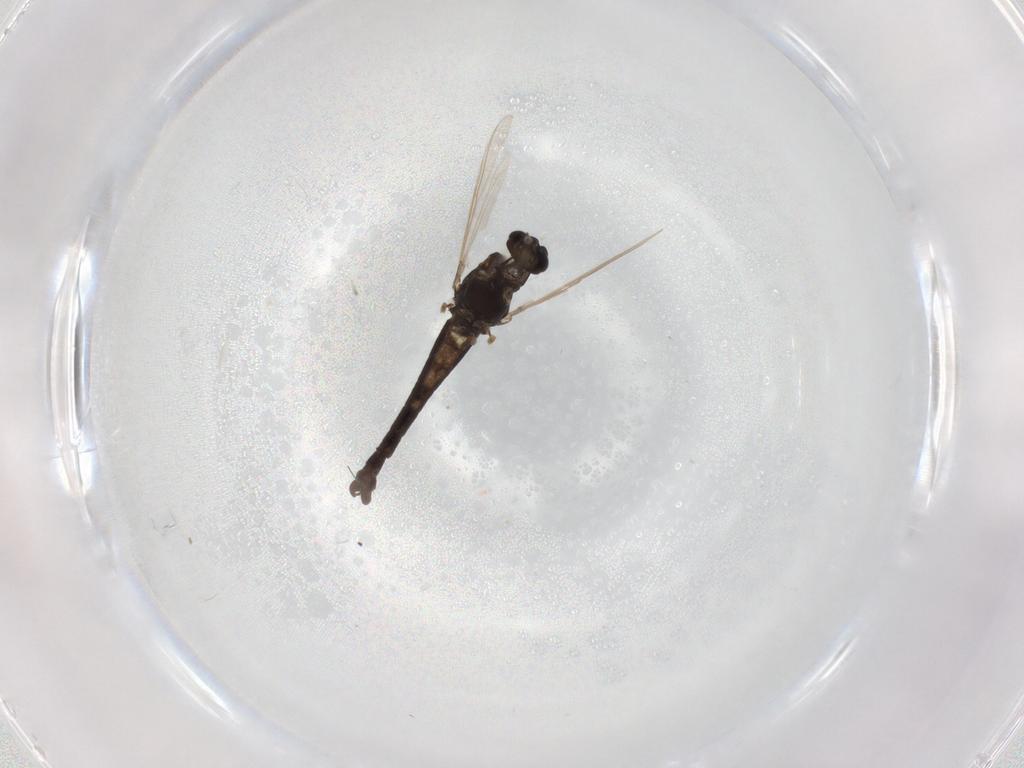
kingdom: Animalia
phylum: Arthropoda
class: Insecta
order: Diptera
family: Chironomidae
